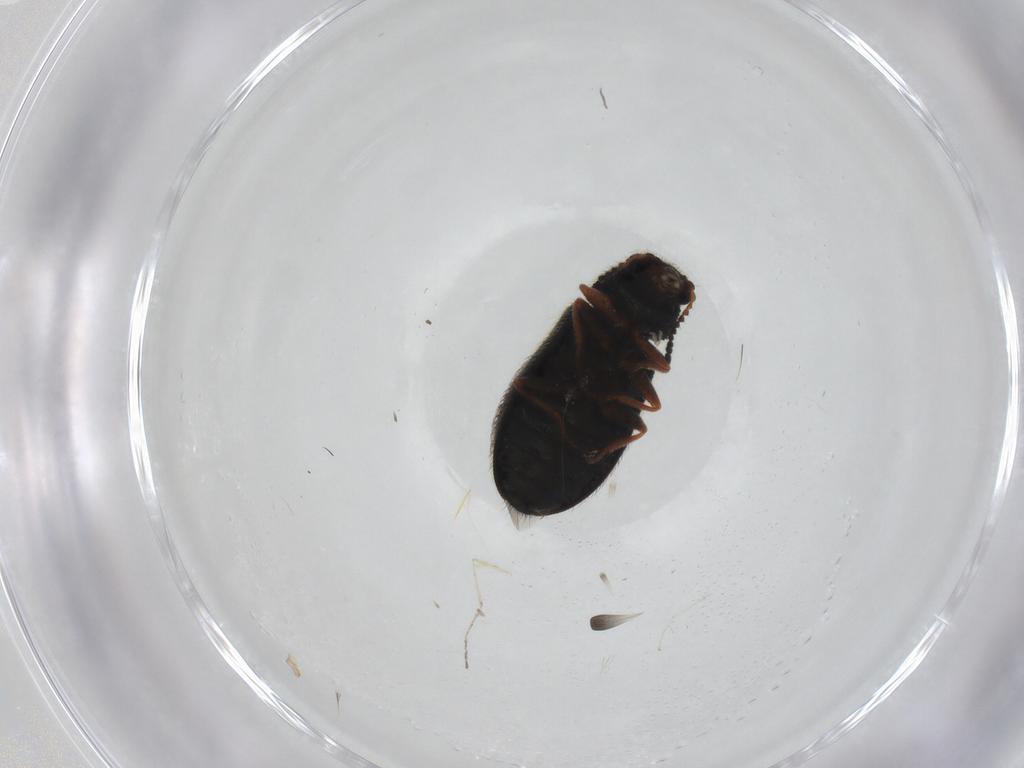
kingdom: Animalia
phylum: Arthropoda
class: Insecta
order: Coleoptera
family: Melyridae
